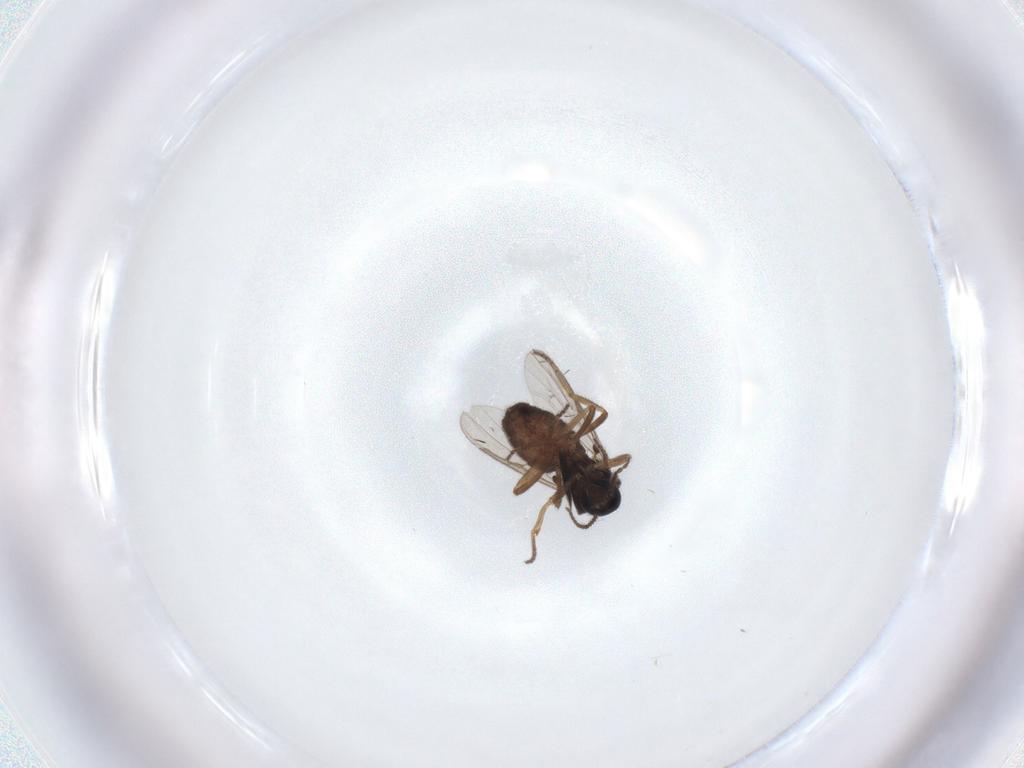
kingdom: Animalia
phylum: Arthropoda
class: Insecta
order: Diptera
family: Ceratopogonidae
